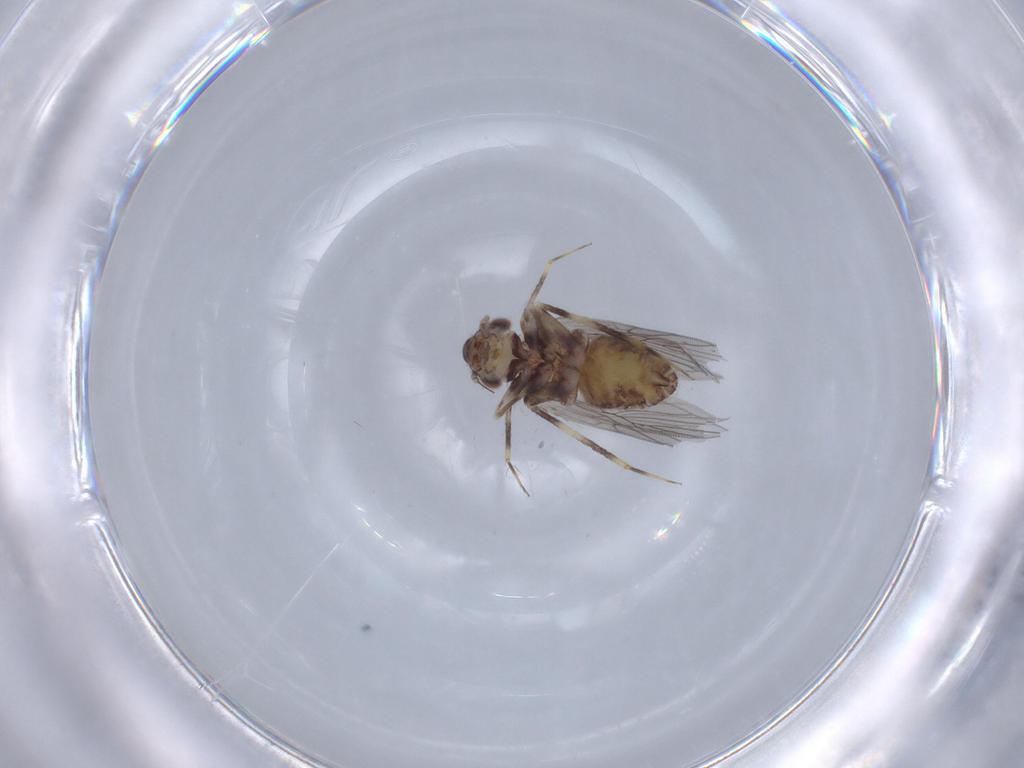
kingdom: Animalia
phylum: Arthropoda
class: Insecta
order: Psocodea
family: Lepidopsocidae
